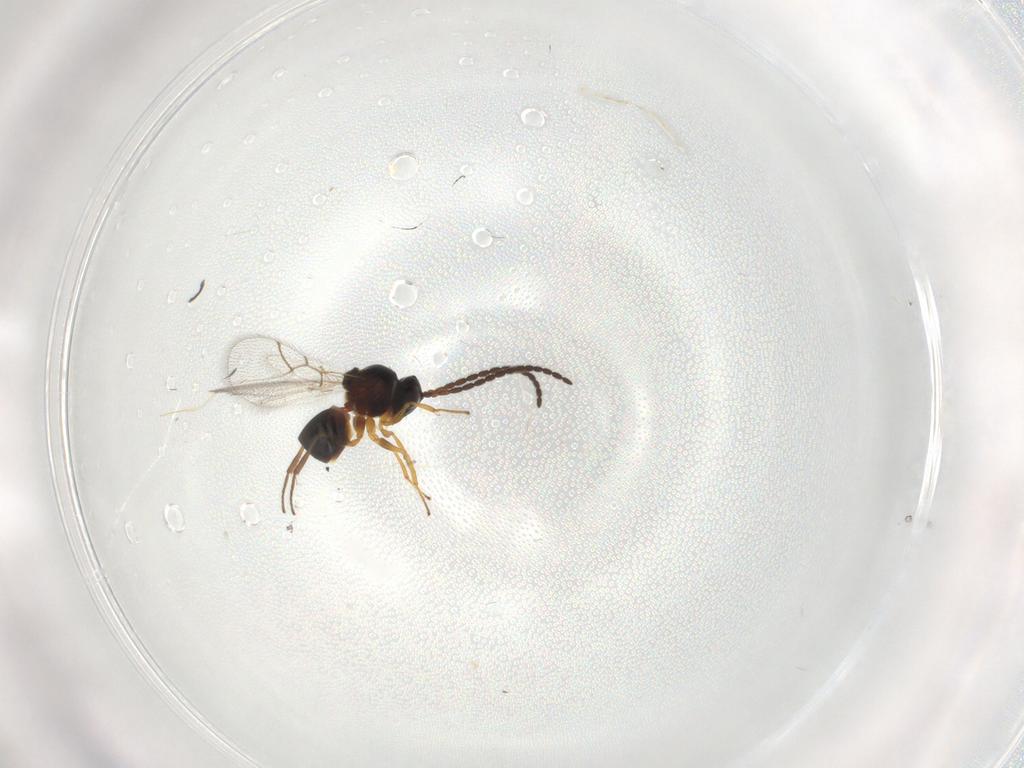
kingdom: Animalia
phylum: Arthropoda
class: Insecta
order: Hymenoptera
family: Figitidae
